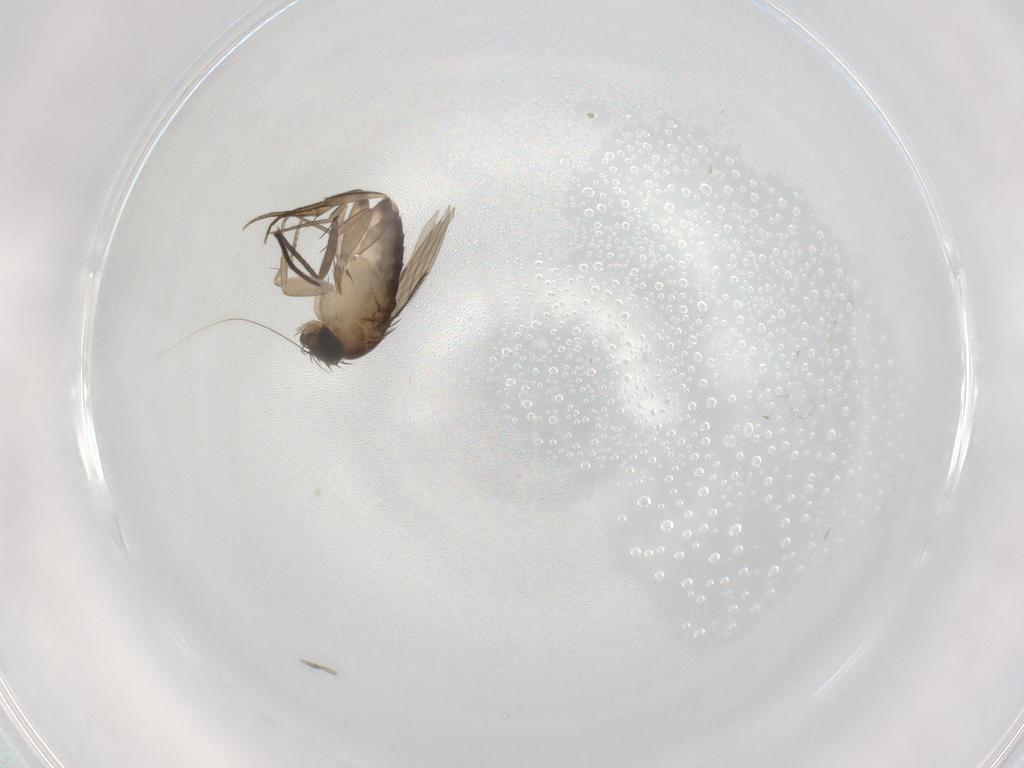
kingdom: Animalia
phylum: Arthropoda
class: Insecta
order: Diptera
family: Phoridae
